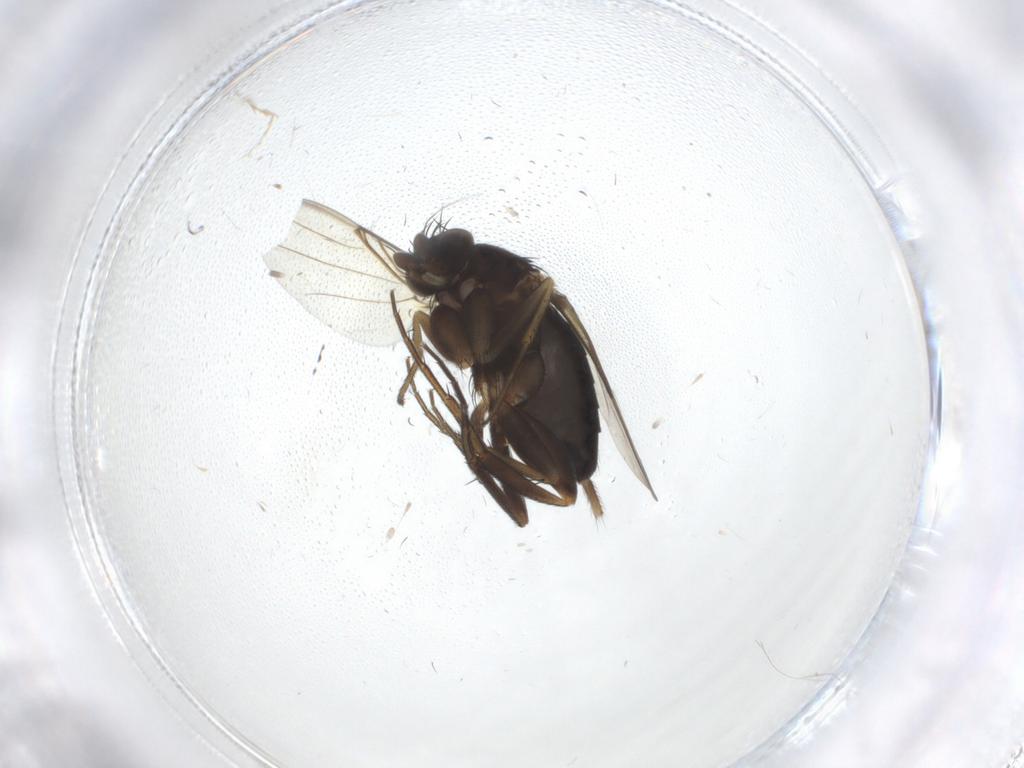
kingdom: Animalia
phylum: Arthropoda
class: Insecta
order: Diptera
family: Phoridae
